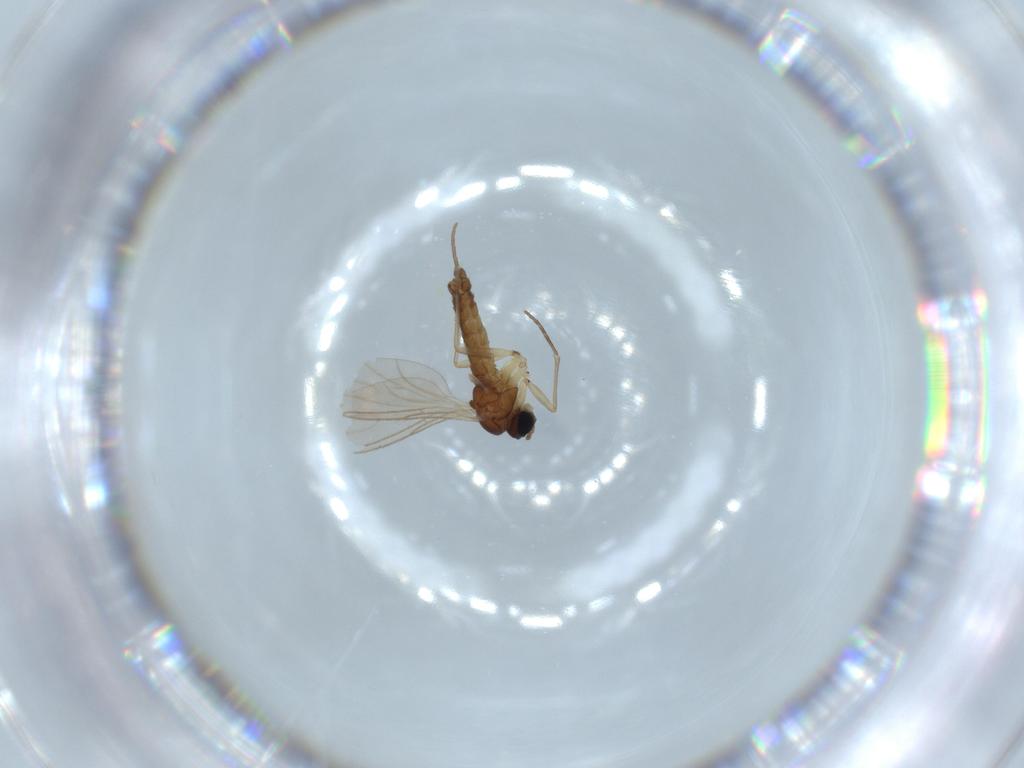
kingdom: Animalia
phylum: Arthropoda
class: Insecta
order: Diptera
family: Sciaridae
